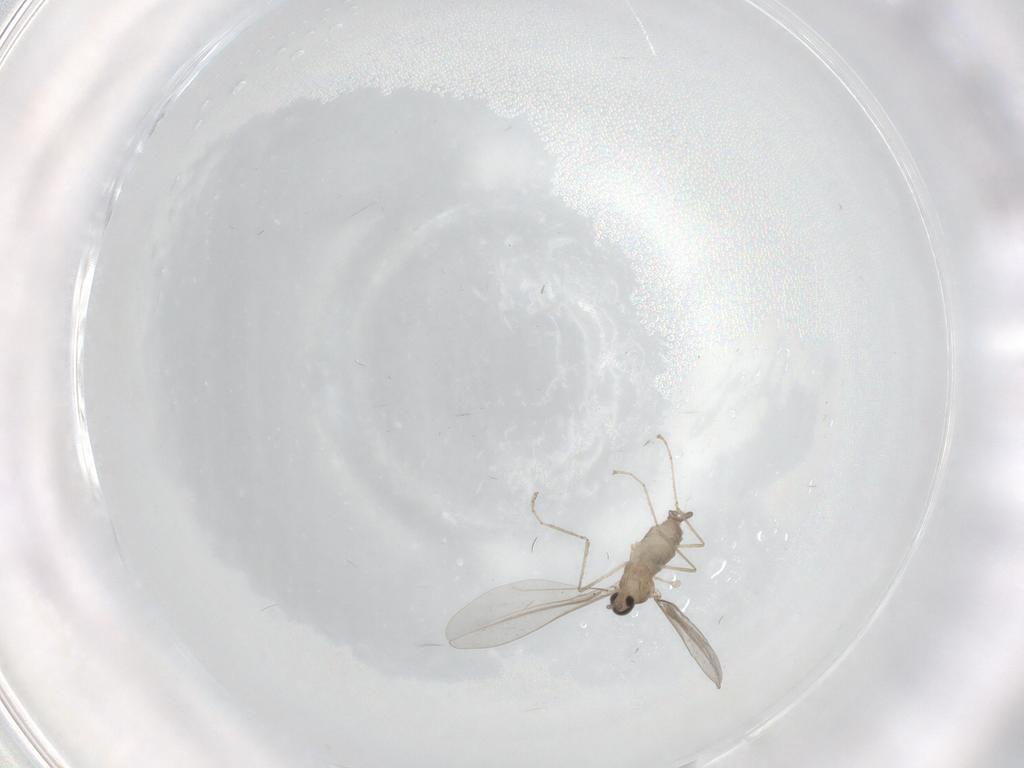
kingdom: Animalia
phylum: Arthropoda
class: Insecta
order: Diptera
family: Cecidomyiidae
